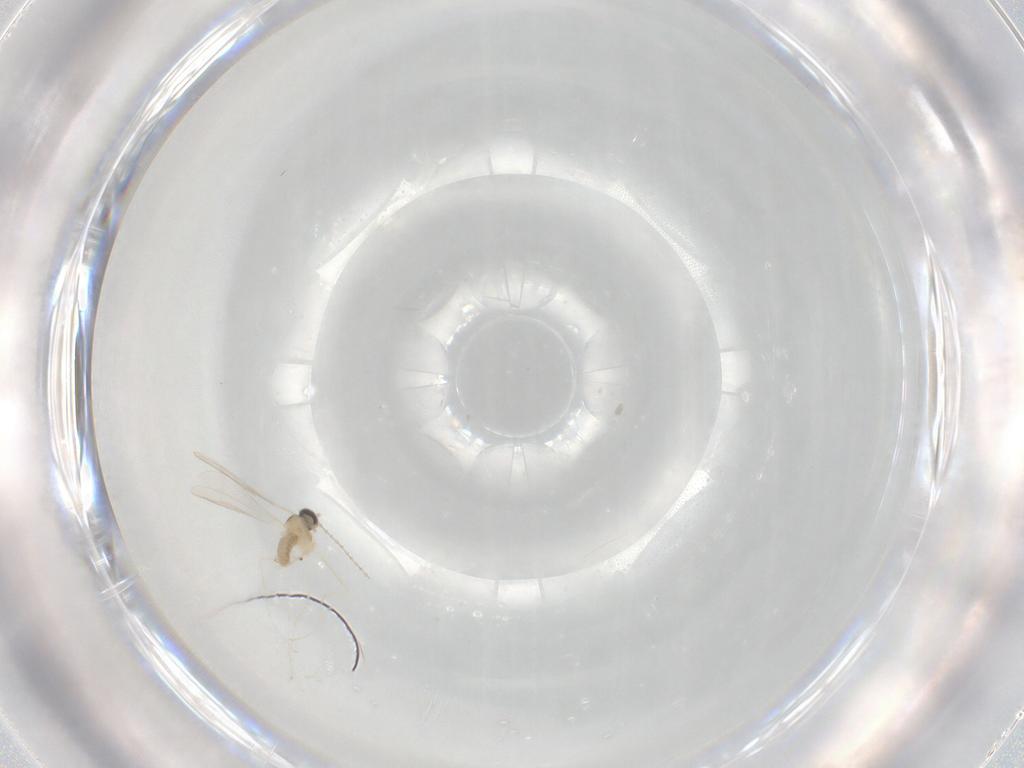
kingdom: Animalia
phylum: Arthropoda
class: Insecta
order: Diptera
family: Cecidomyiidae
